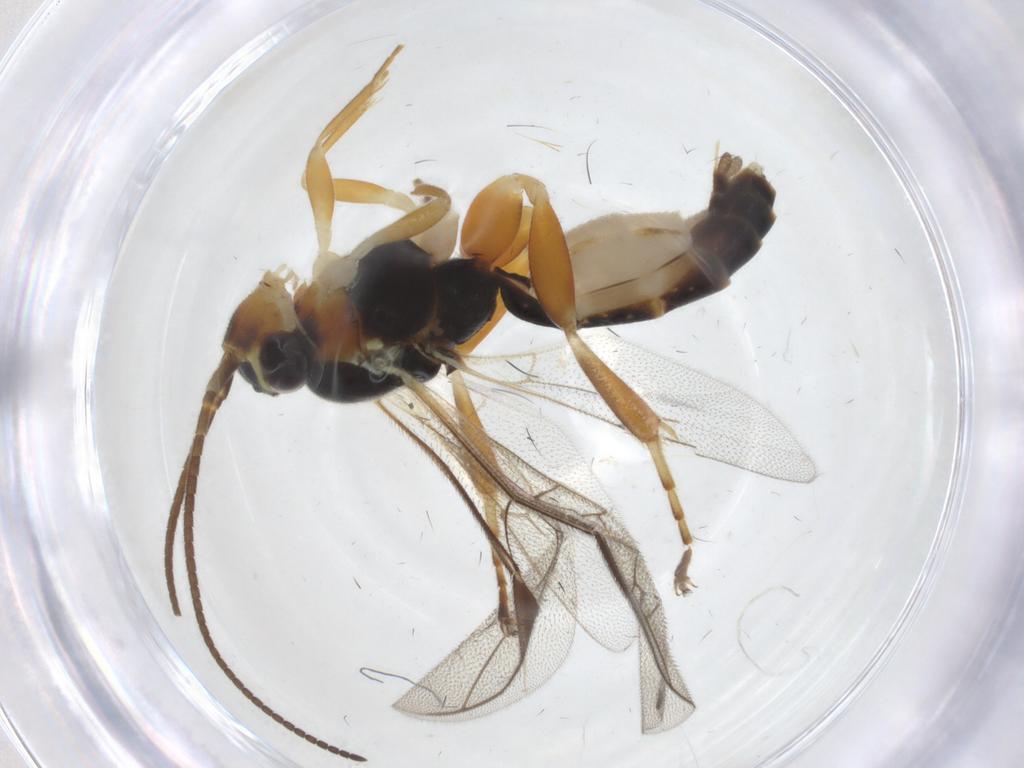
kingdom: Animalia
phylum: Arthropoda
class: Insecta
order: Hymenoptera
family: Ichneumonidae
